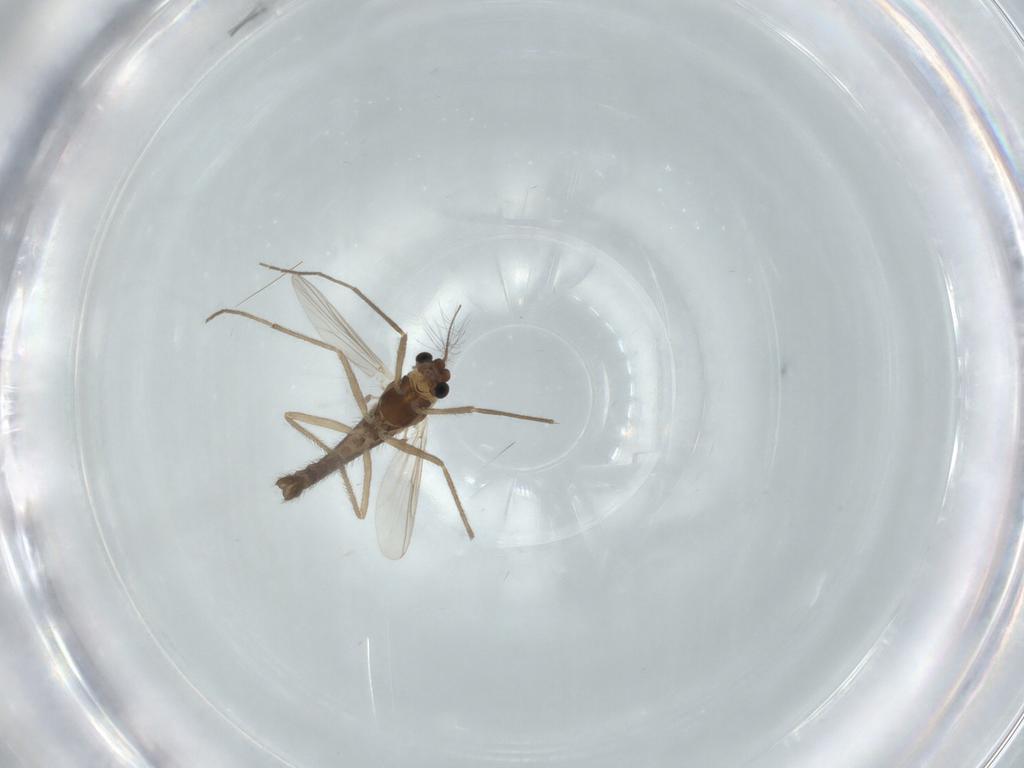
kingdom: Animalia
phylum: Arthropoda
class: Insecta
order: Diptera
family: Chironomidae
